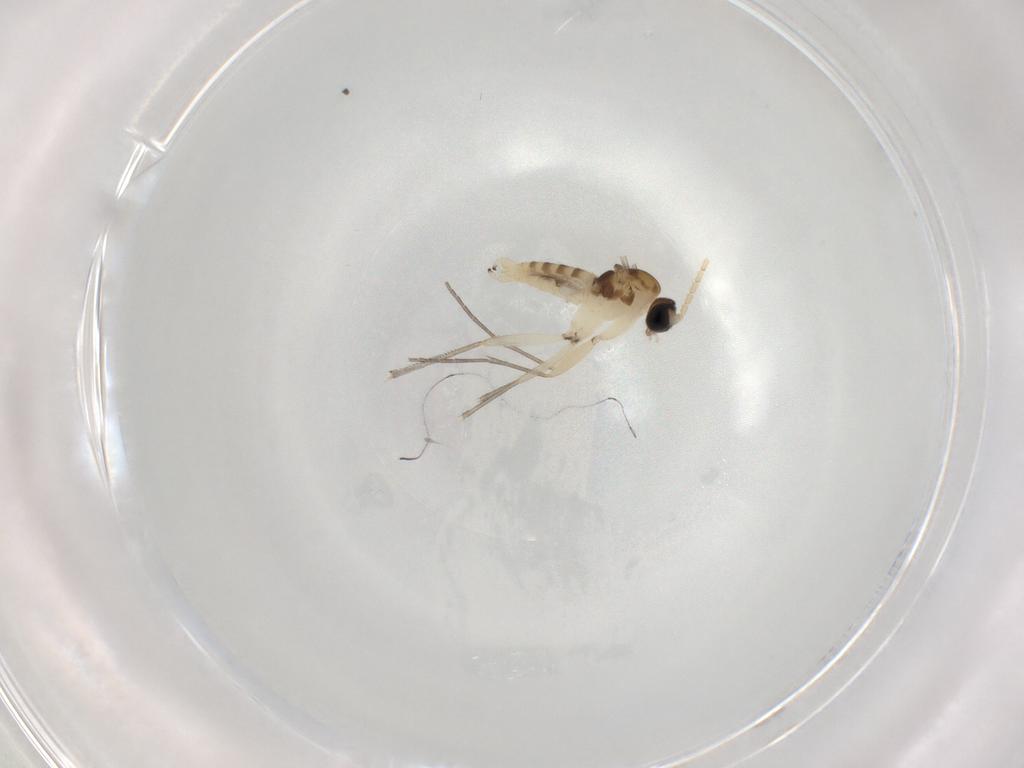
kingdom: Animalia
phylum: Arthropoda
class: Insecta
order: Diptera
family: Sciaridae
